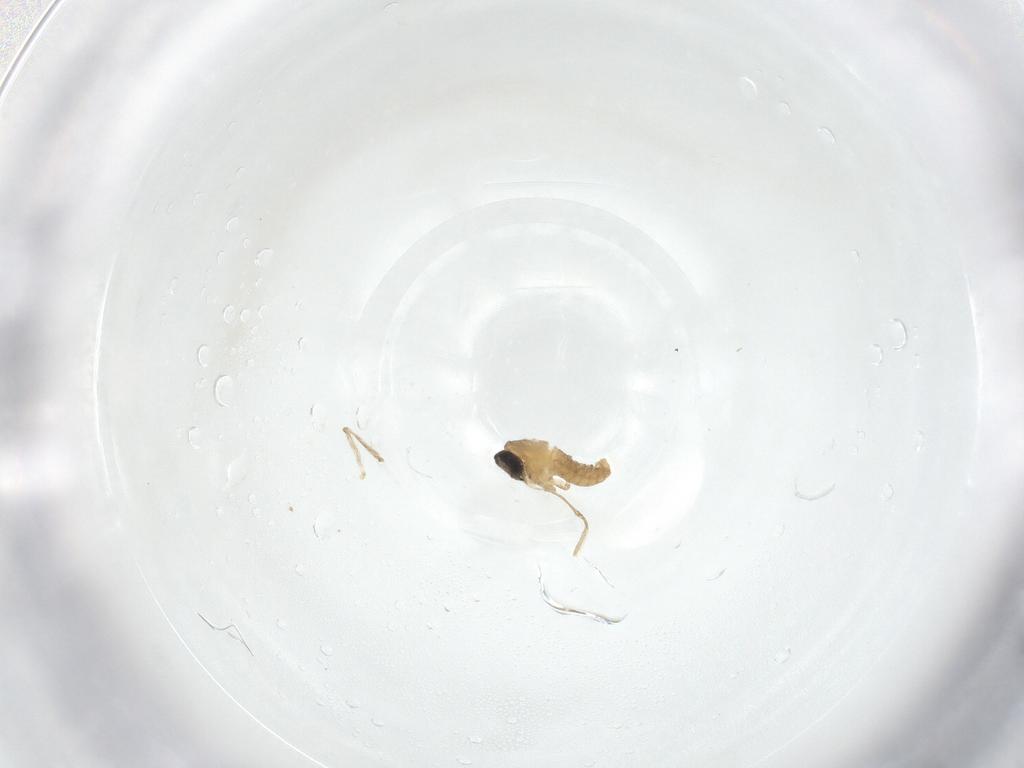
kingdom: Animalia
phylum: Arthropoda
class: Insecta
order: Diptera
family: Cecidomyiidae
